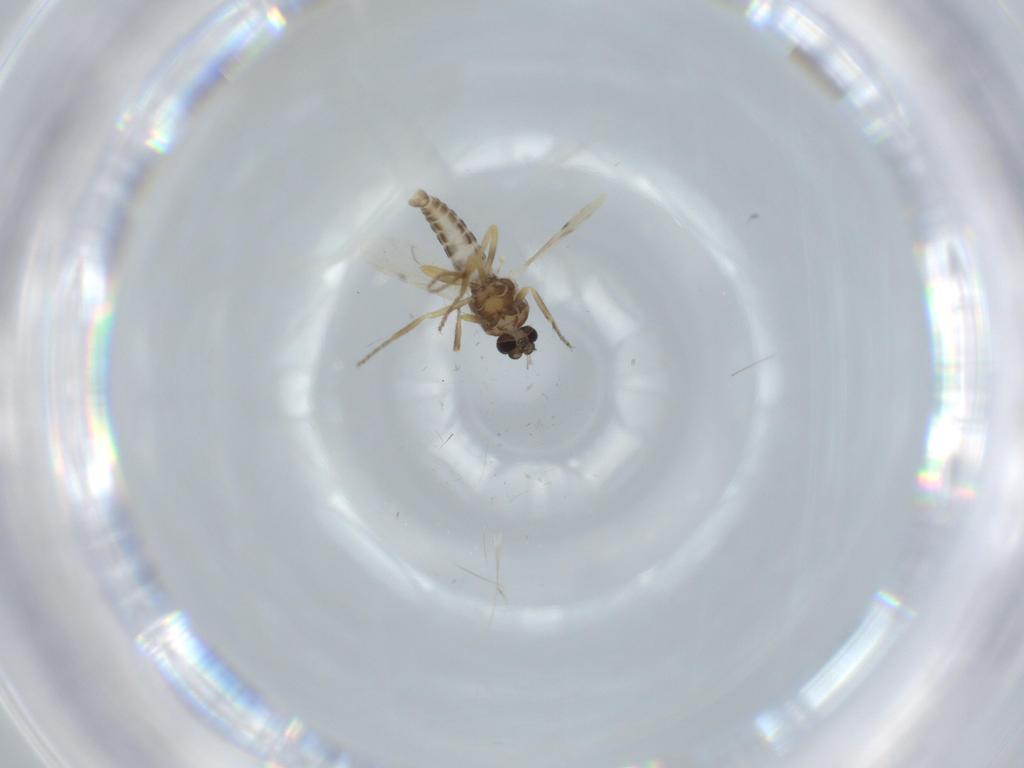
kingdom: Animalia
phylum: Arthropoda
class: Insecta
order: Diptera
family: Ceratopogonidae
